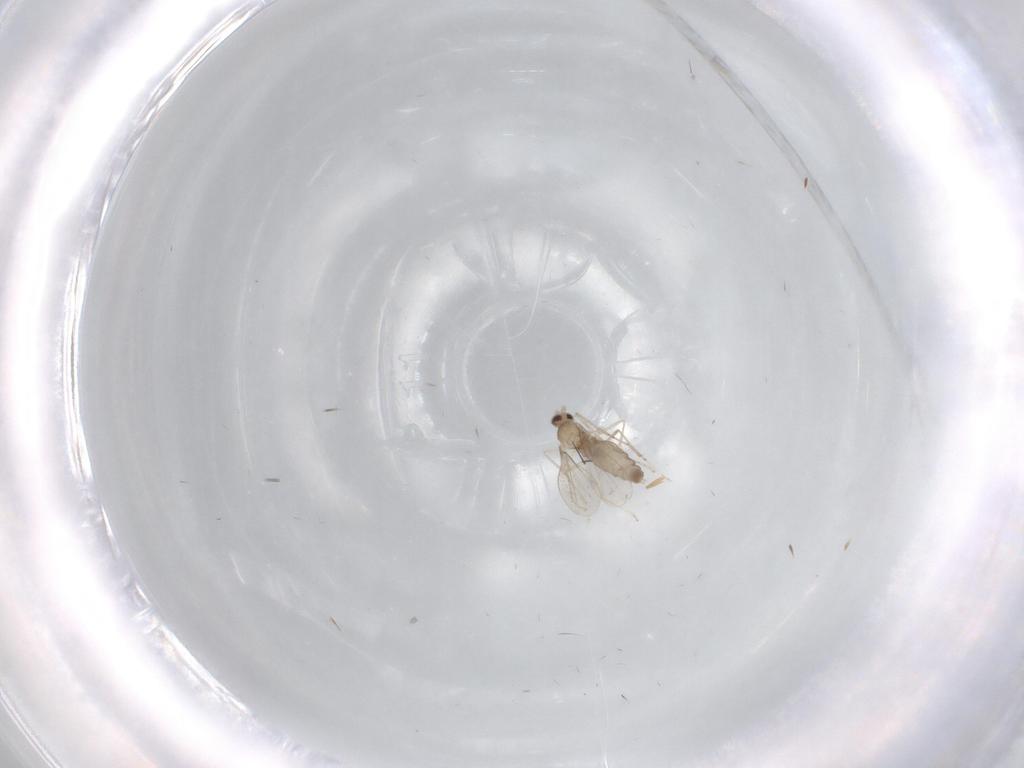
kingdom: Animalia
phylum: Arthropoda
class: Insecta
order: Diptera
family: Cecidomyiidae
